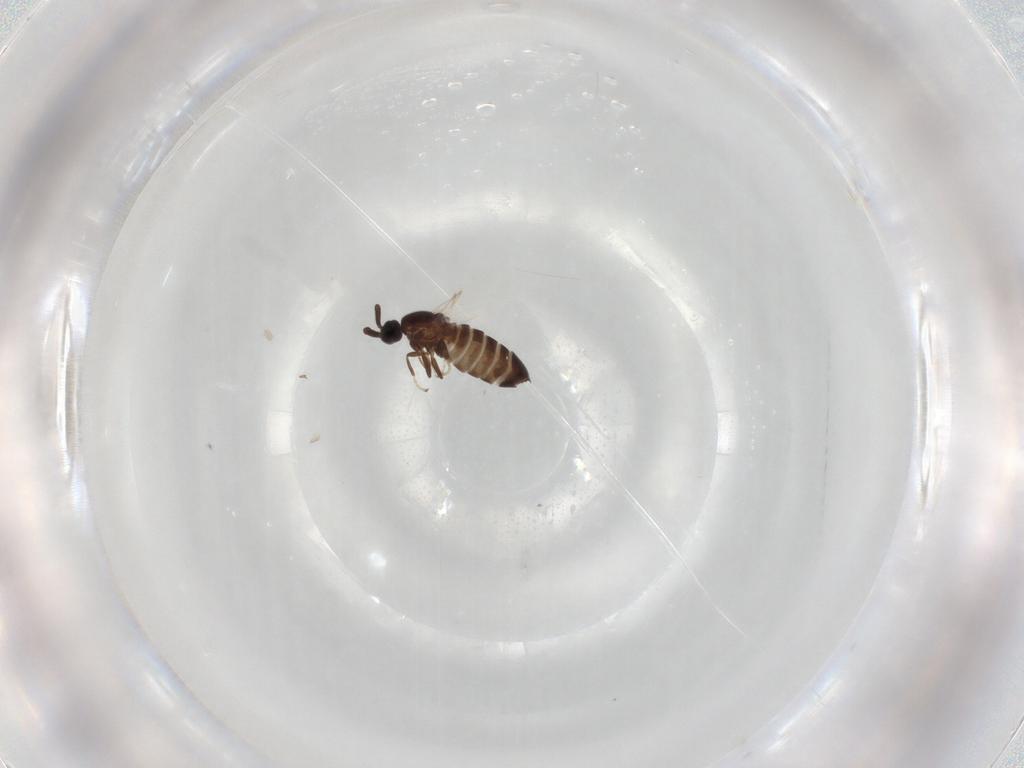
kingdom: Animalia
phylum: Arthropoda
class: Insecta
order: Diptera
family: Scatopsidae
